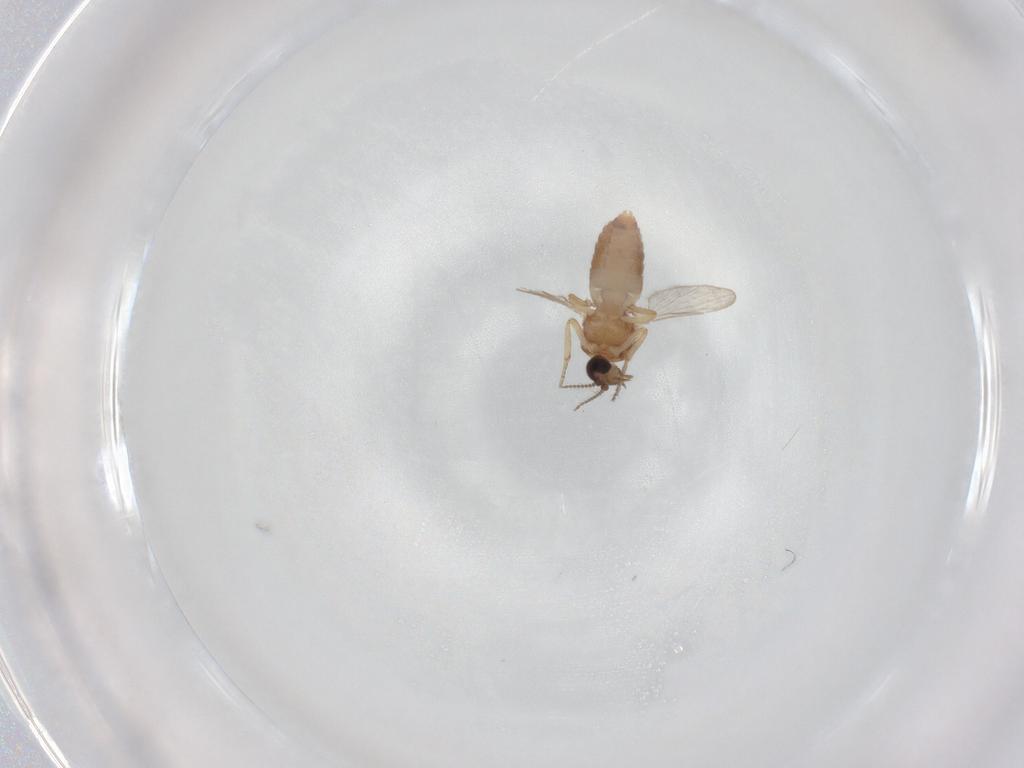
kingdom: Animalia
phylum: Arthropoda
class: Insecta
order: Diptera
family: Ceratopogonidae
